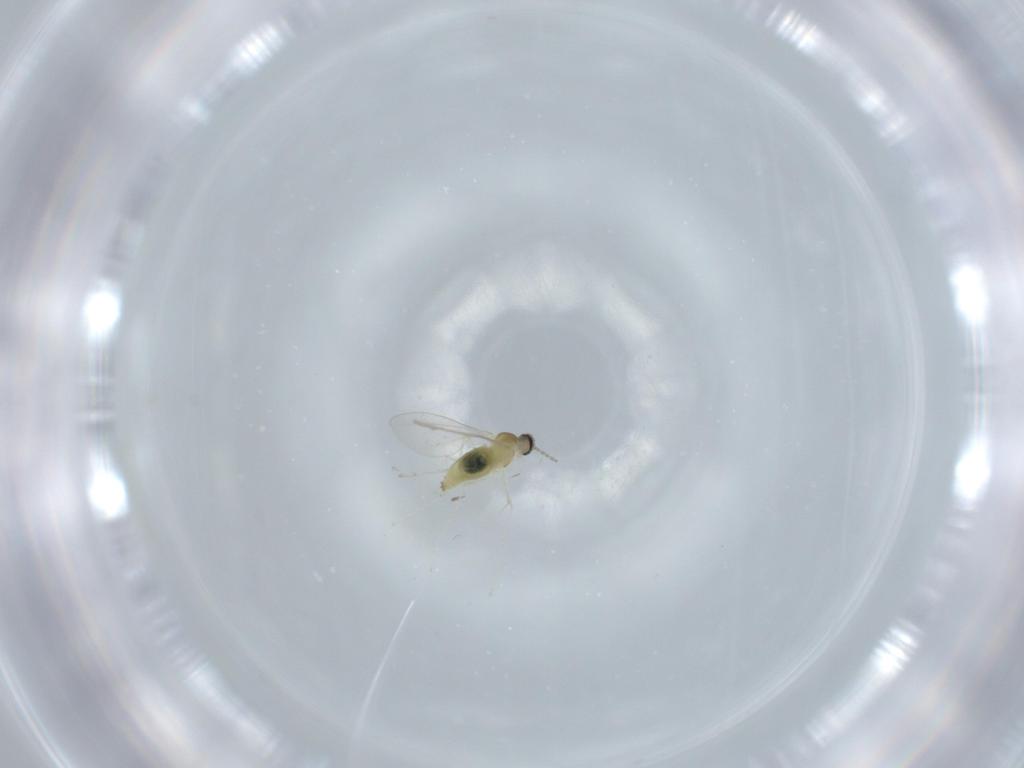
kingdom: Animalia
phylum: Arthropoda
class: Insecta
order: Diptera
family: Cecidomyiidae
